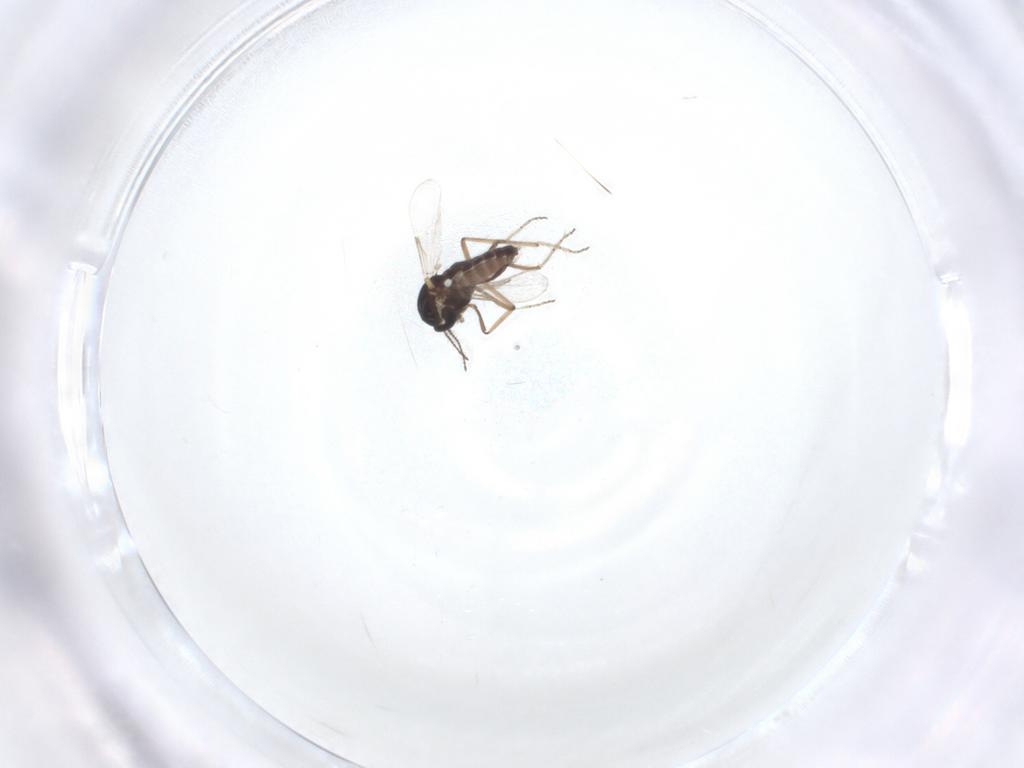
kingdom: Animalia
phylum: Arthropoda
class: Insecta
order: Diptera
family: Ceratopogonidae
